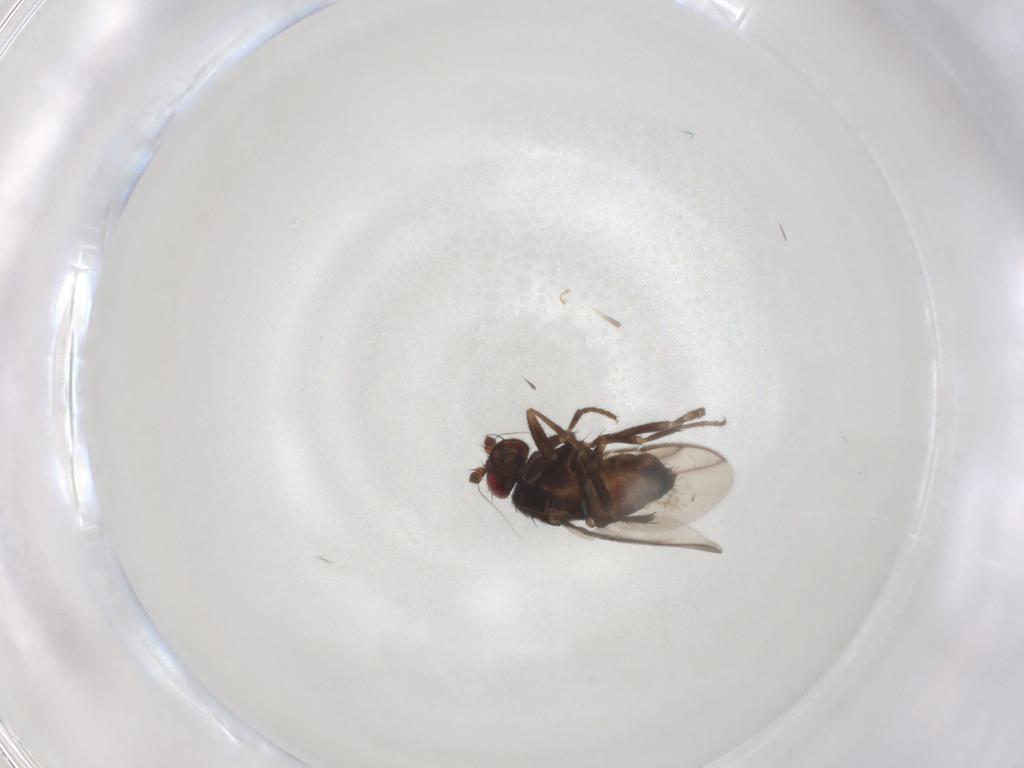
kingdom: Animalia
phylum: Arthropoda
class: Insecta
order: Diptera
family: Sphaeroceridae
